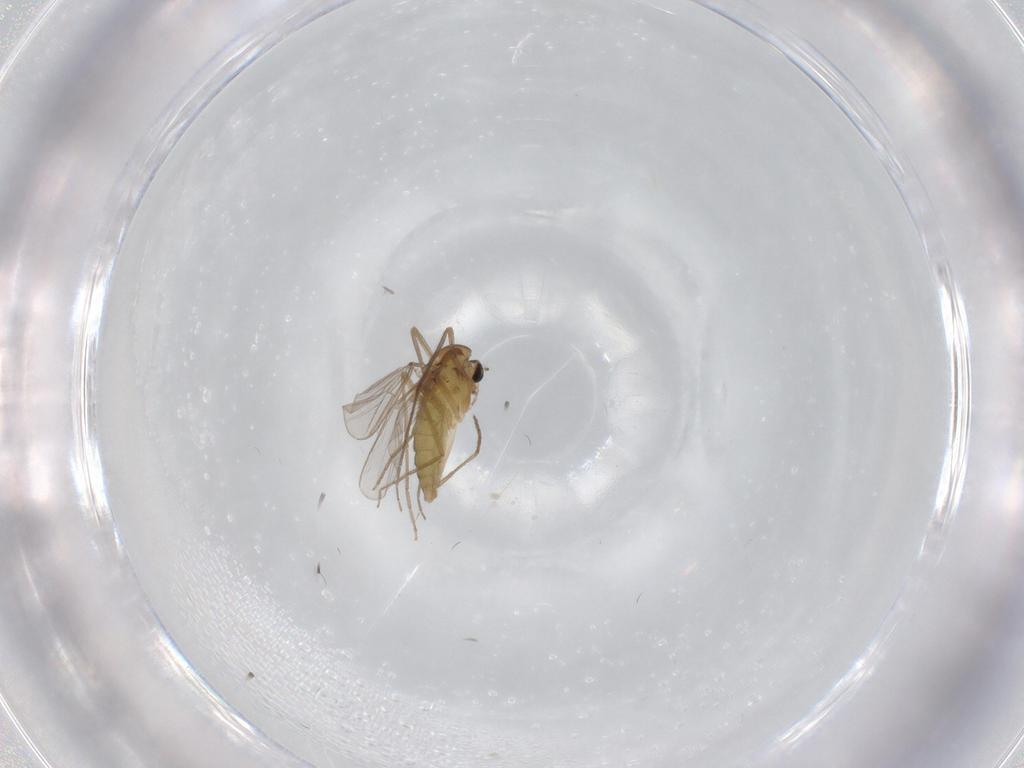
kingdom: Animalia
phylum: Arthropoda
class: Insecta
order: Diptera
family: Chironomidae
